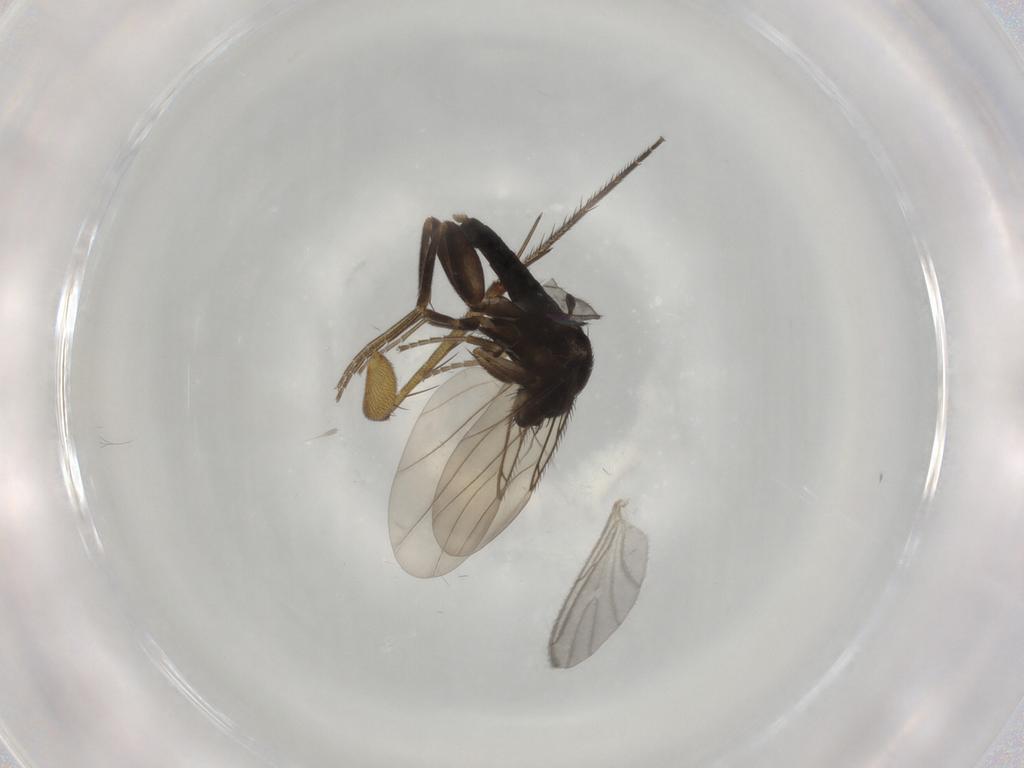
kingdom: Animalia
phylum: Arthropoda
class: Insecta
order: Diptera
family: Phoridae
